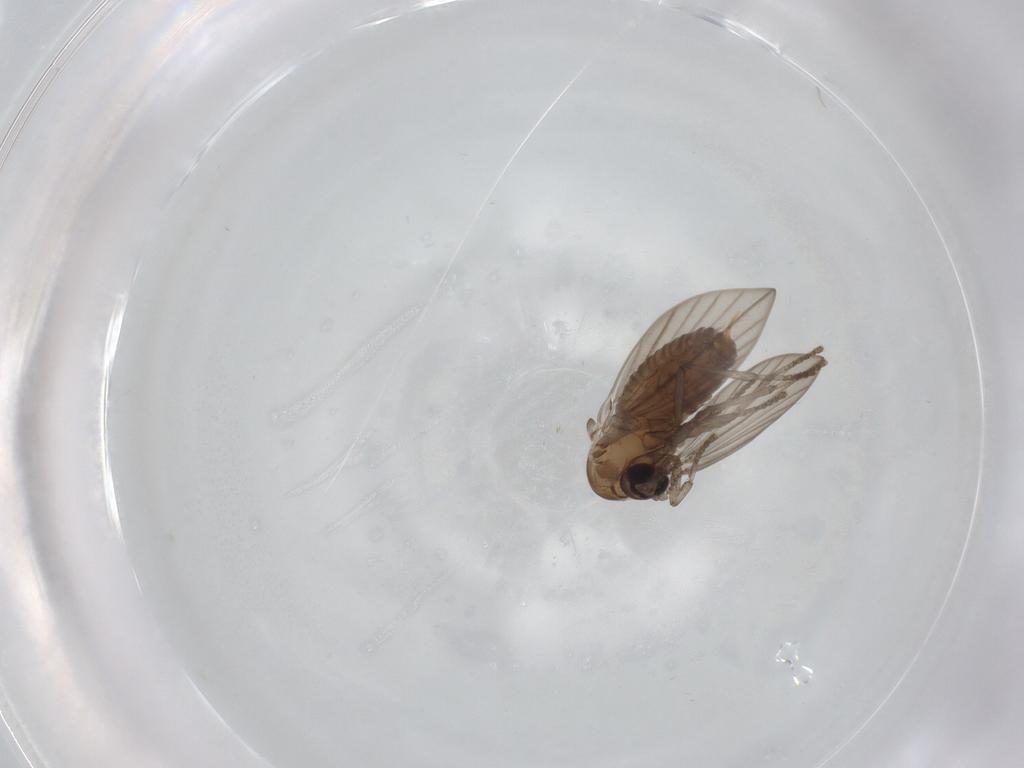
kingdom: Animalia
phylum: Arthropoda
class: Insecta
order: Diptera
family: Psychodidae
